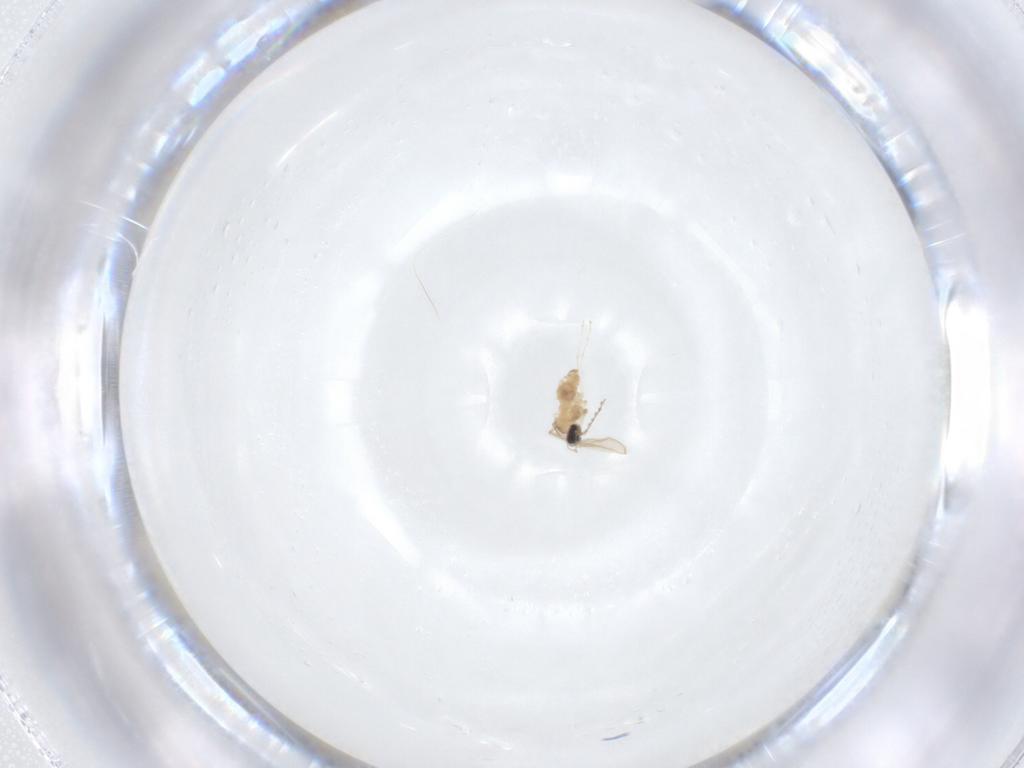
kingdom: Animalia
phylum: Arthropoda
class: Insecta
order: Diptera
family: Cecidomyiidae
